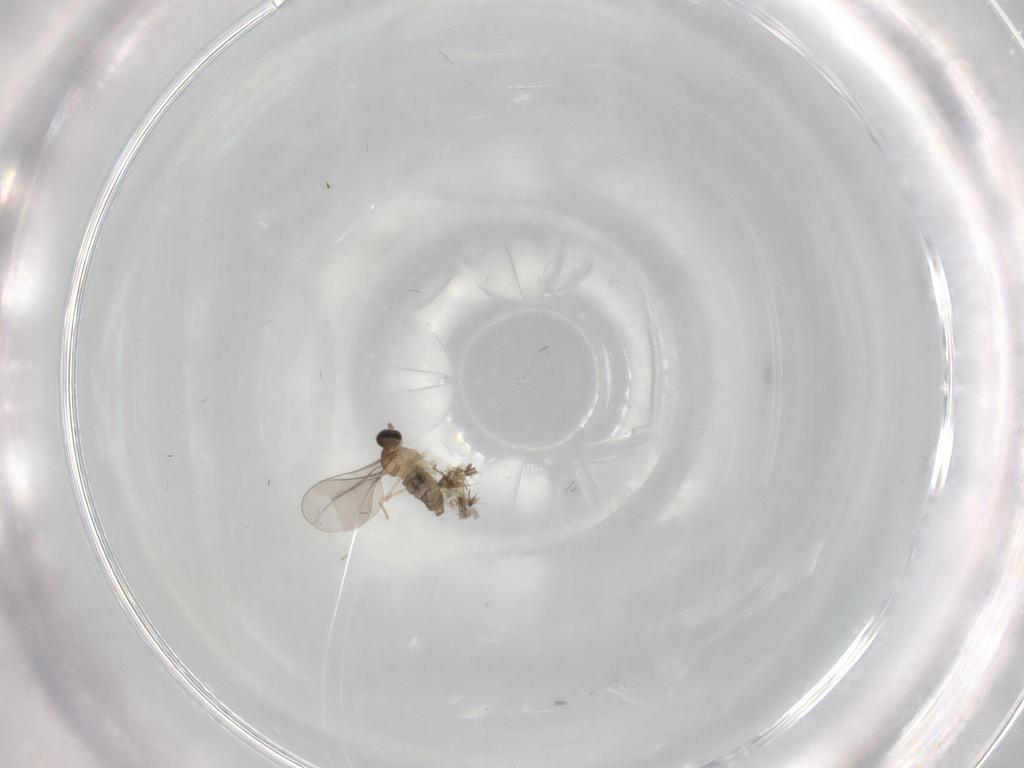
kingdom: Animalia
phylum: Arthropoda
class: Insecta
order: Diptera
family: Cecidomyiidae
